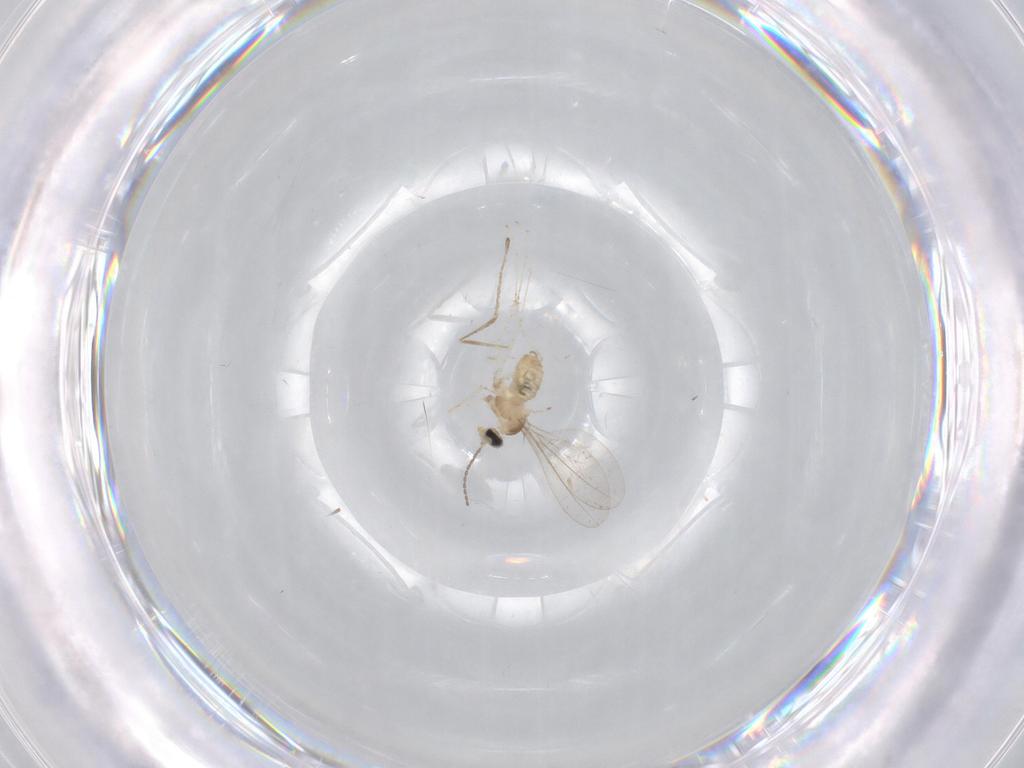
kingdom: Animalia
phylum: Arthropoda
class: Insecta
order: Diptera
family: Cecidomyiidae
